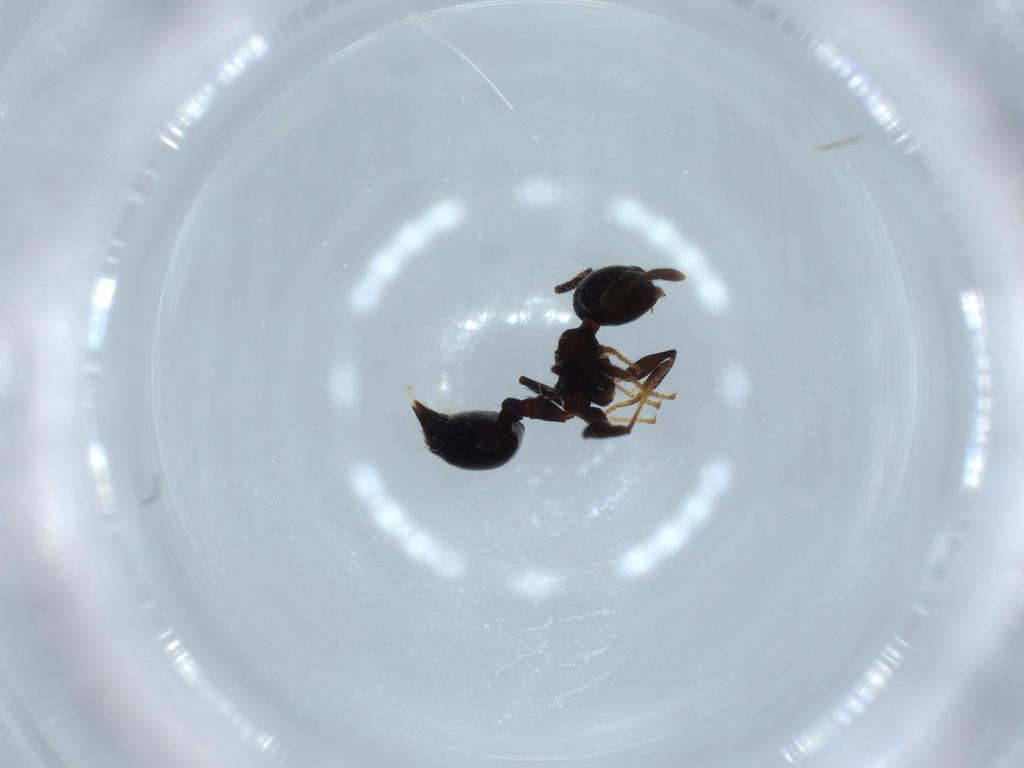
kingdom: Animalia
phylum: Arthropoda
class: Insecta
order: Hymenoptera
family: Formicidae
